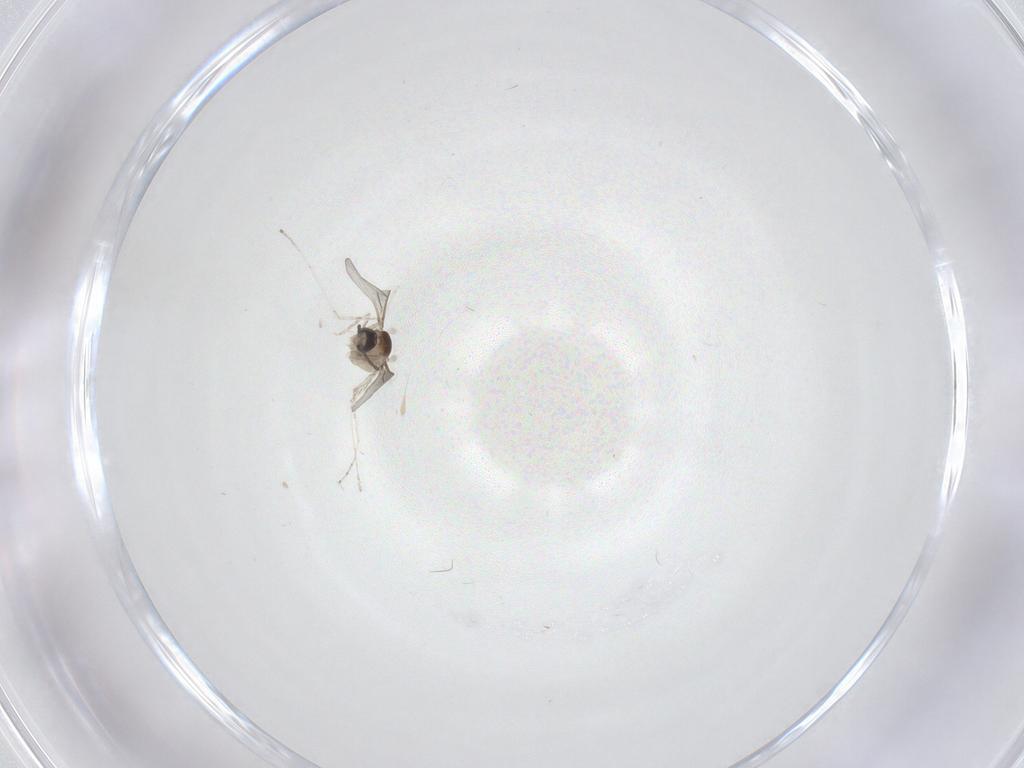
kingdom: Animalia
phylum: Arthropoda
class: Insecta
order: Diptera
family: Cecidomyiidae
